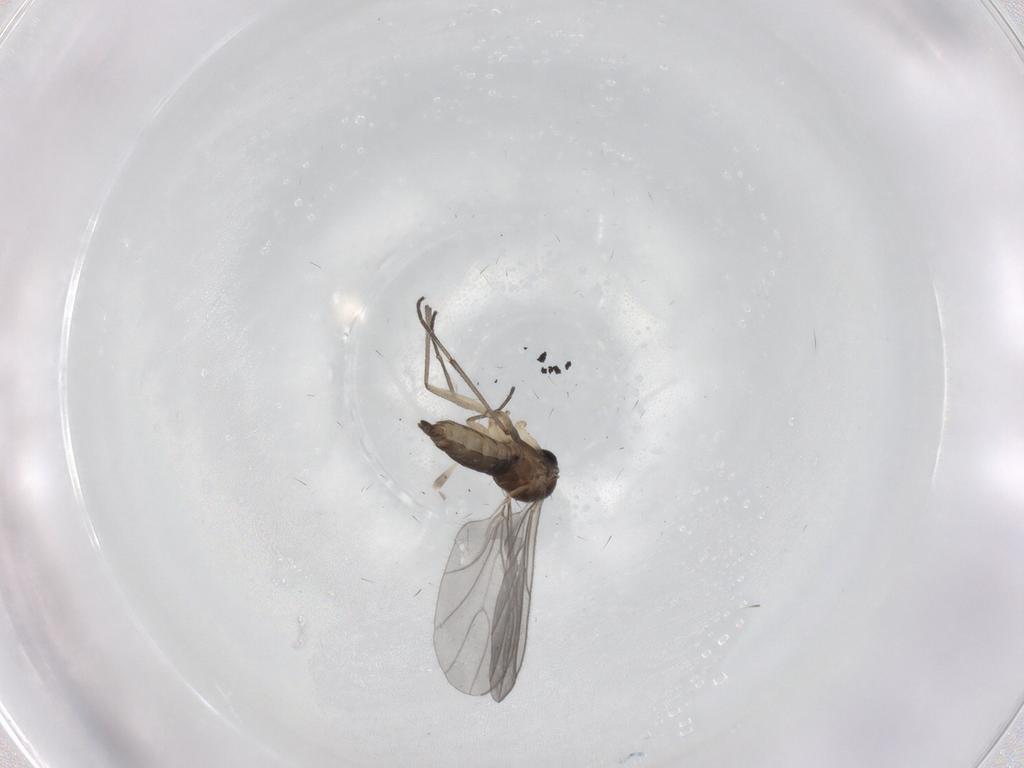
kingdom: Animalia
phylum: Arthropoda
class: Insecta
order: Diptera
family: Sciaridae
